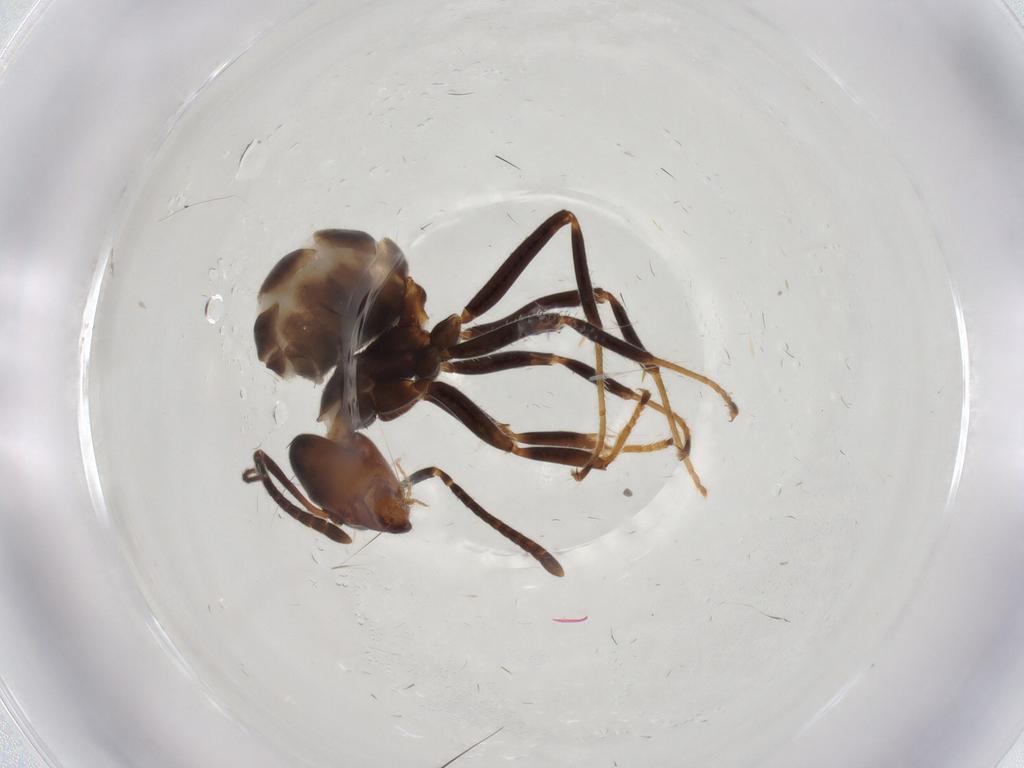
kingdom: Animalia
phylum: Arthropoda
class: Insecta
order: Hymenoptera
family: Formicidae
